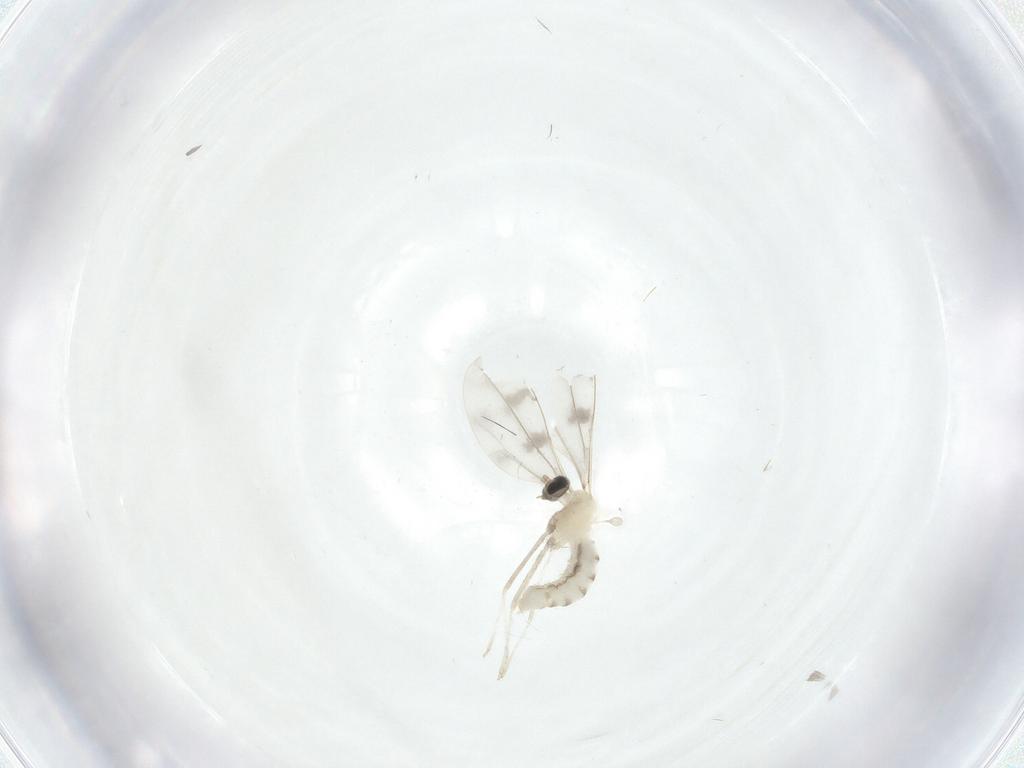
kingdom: Animalia
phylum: Arthropoda
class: Insecta
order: Diptera
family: Cecidomyiidae
